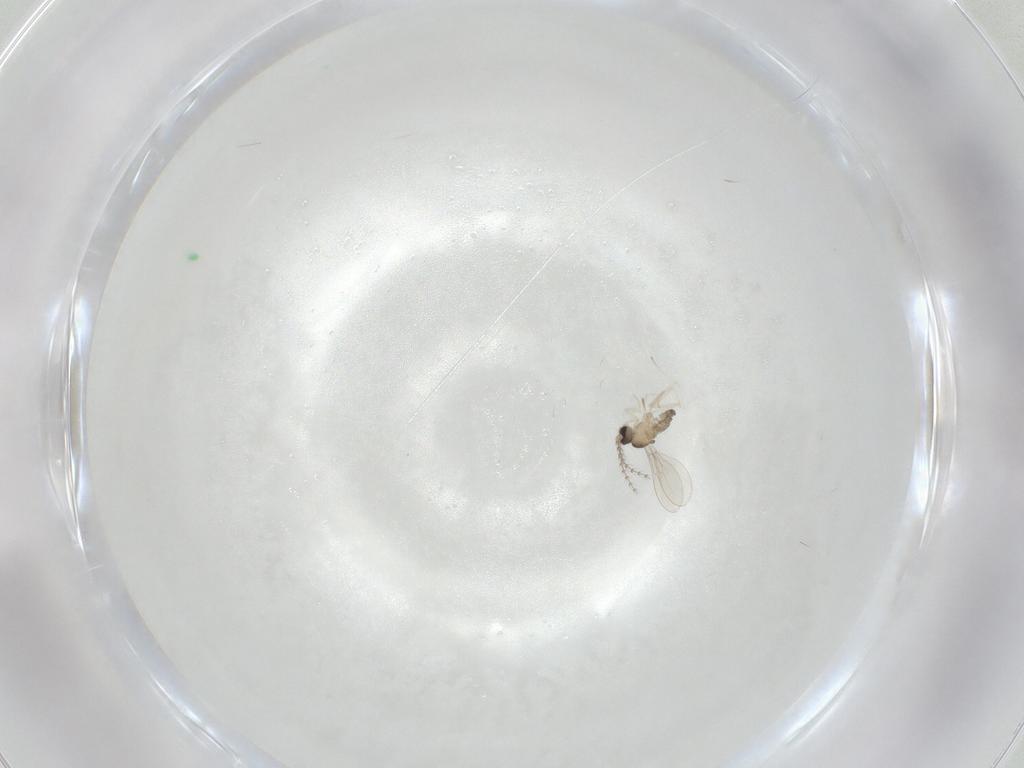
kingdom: Animalia
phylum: Arthropoda
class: Insecta
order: Diptera
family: Cecidomyiidae
